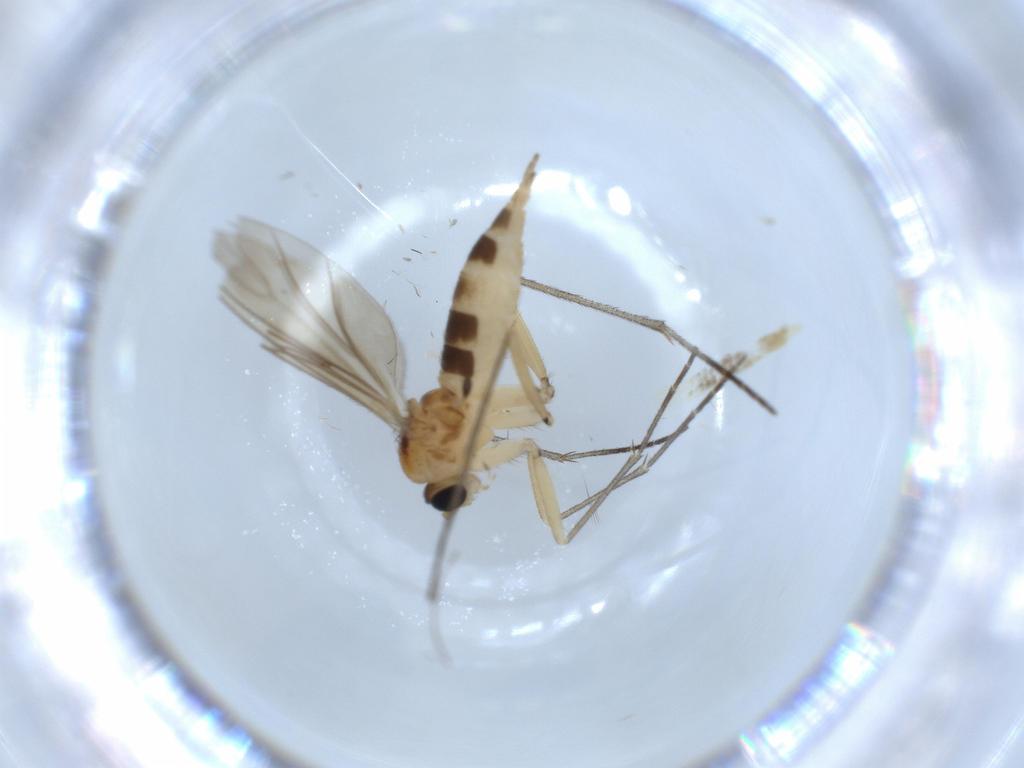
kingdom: Animalia
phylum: Arthropoda
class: Insecta
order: Diptera
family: Sciaridae
